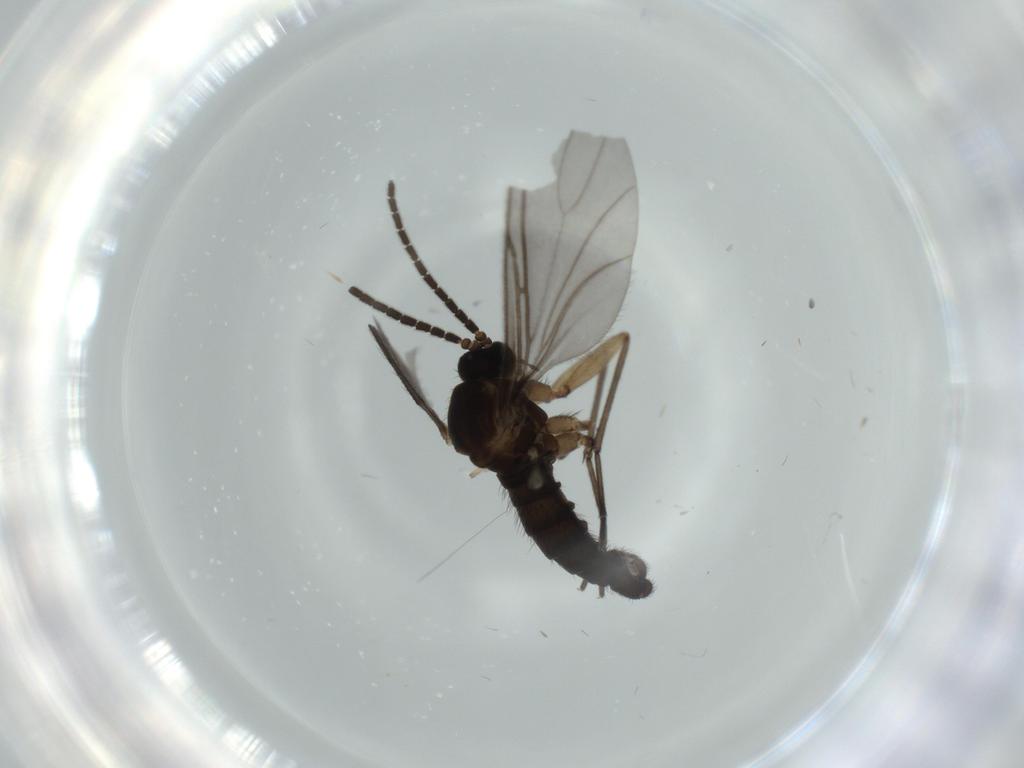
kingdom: Animalia
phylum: Arthropoda
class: Insecta
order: Diptera
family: Sciaridae
